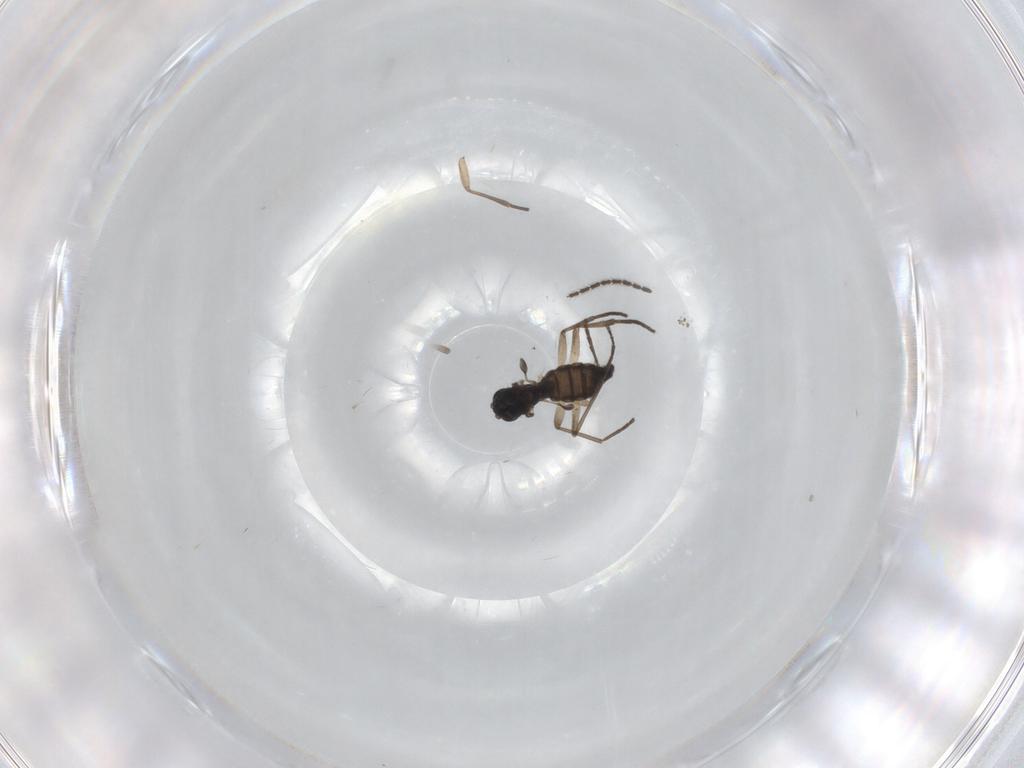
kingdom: Animalia
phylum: Arthropoda
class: Insecta
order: Diptera
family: Sciaridae
